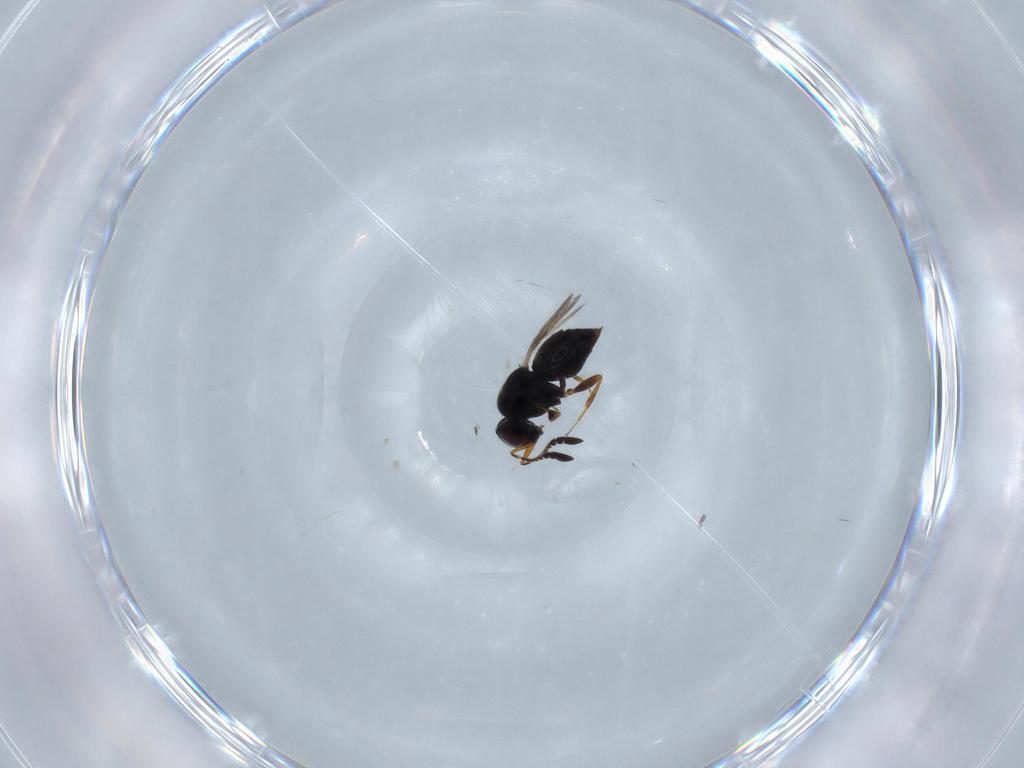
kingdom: Animalia
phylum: Arthropoda
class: Insecta
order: Hymenoptera
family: Ceraphronidae
